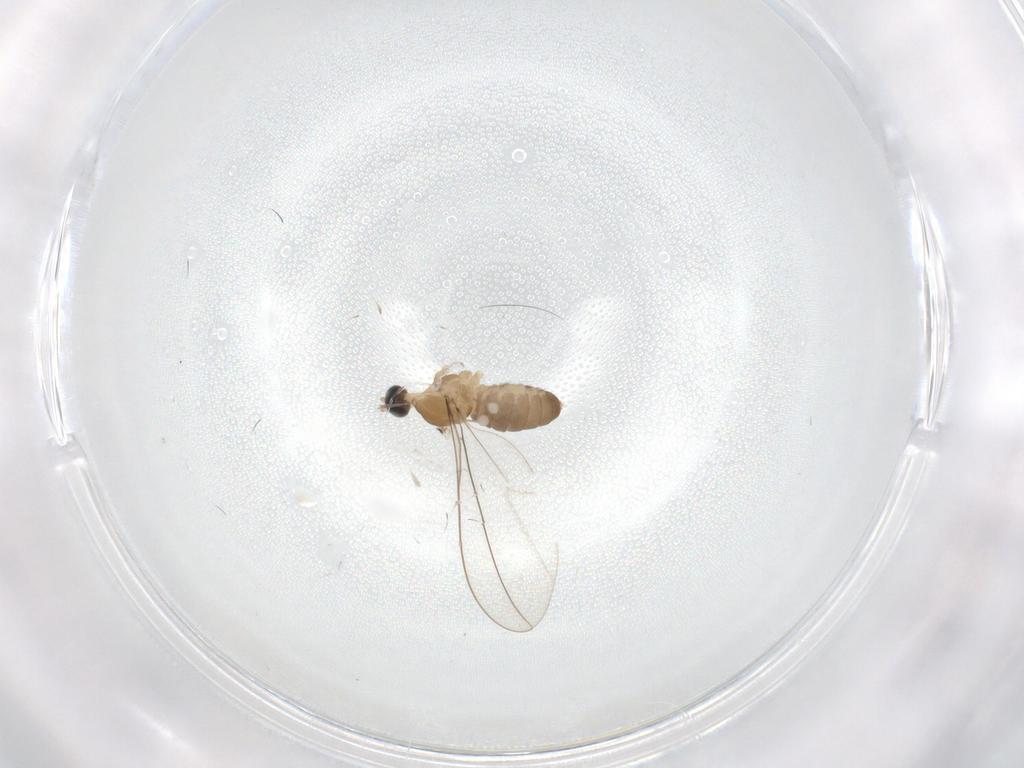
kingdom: Animalia
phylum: Arthropoda
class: Insecta
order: Diptera
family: Cecidomyiidae
